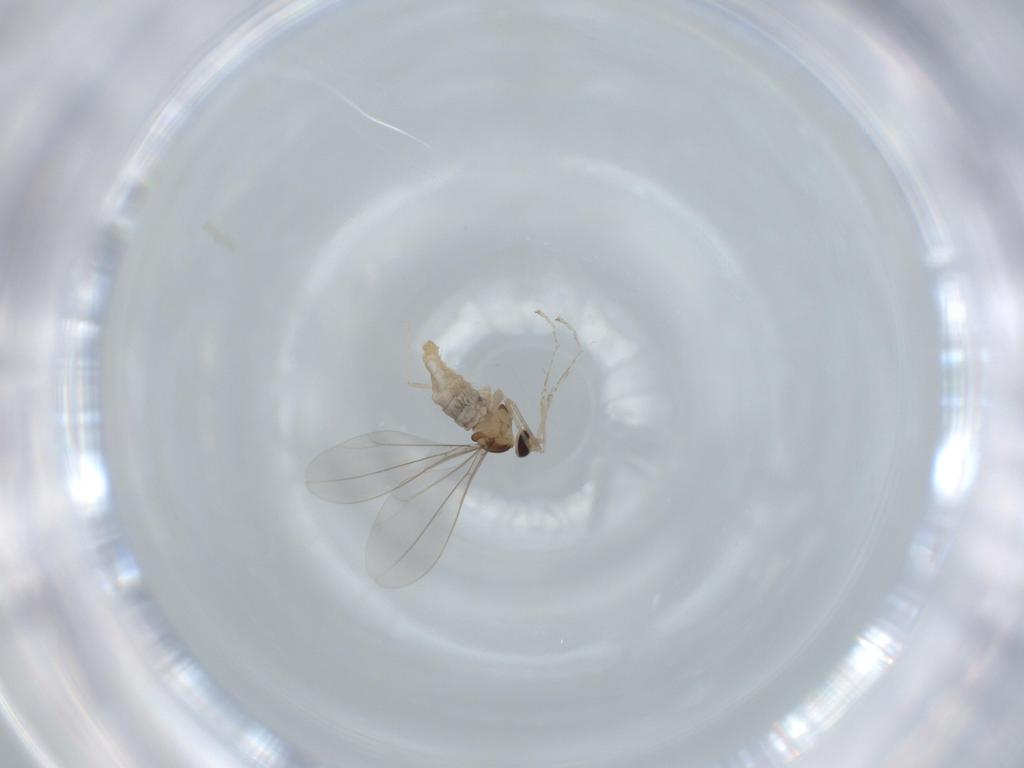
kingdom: Animalia
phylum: Arthropoda
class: Insecta
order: Diptera
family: Cecidomyiidae
